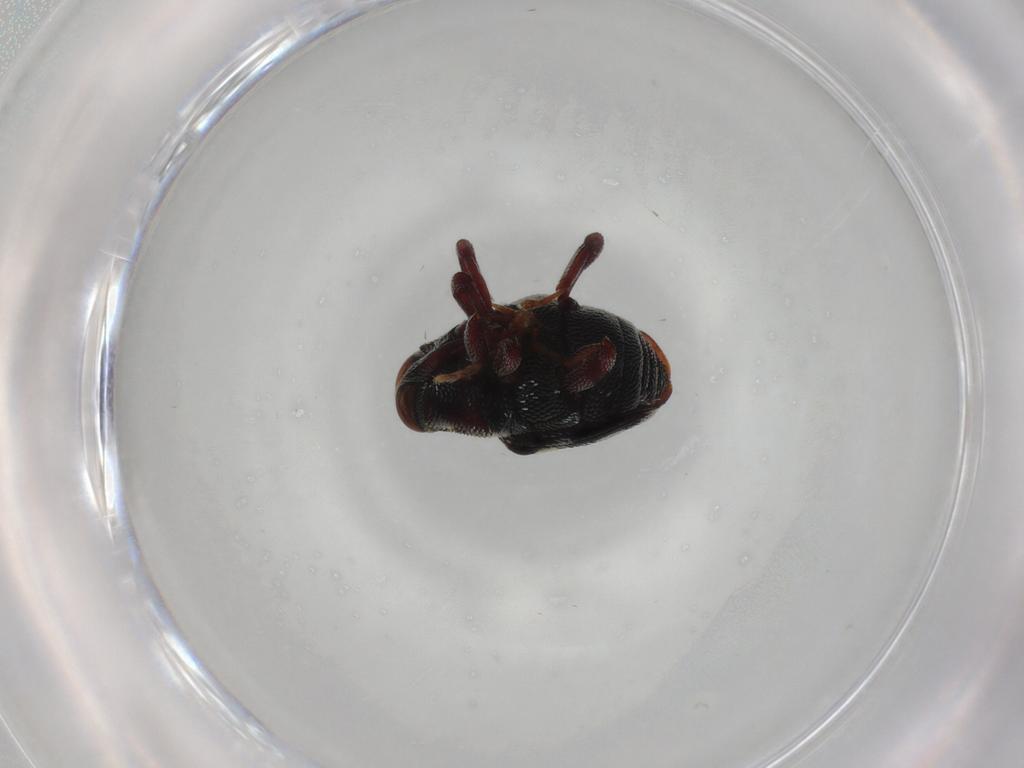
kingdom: Animalia
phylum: Arthropoda
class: Insecta
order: Coleoptera
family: Curculionidae
